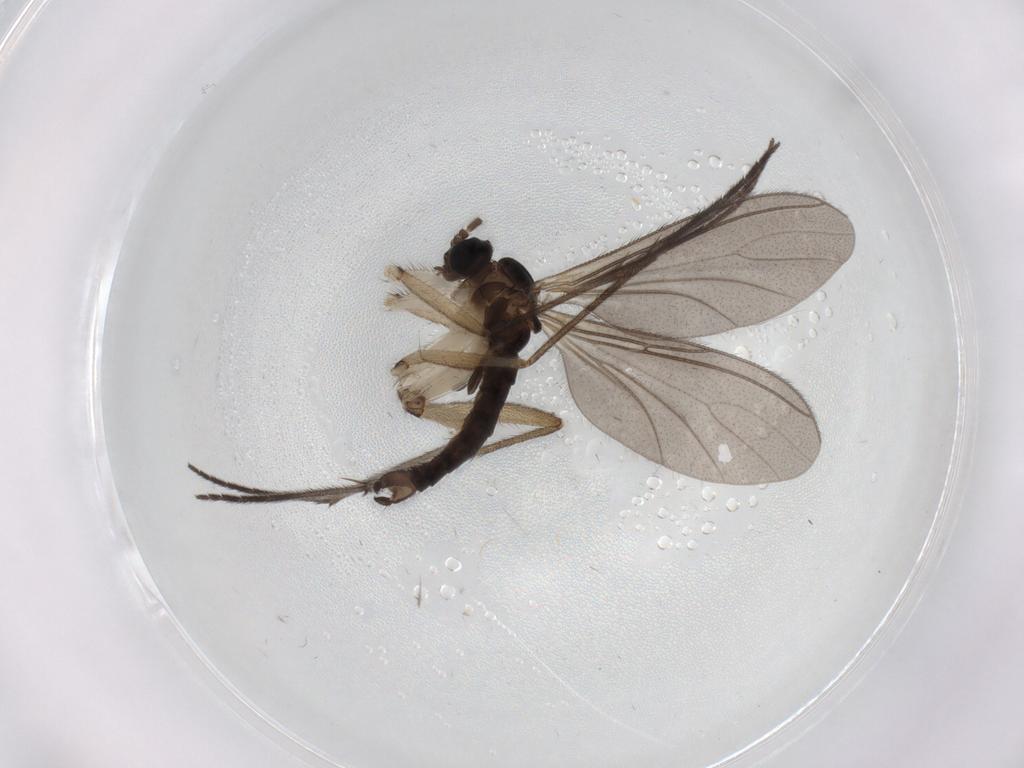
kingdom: Animalia
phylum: Arthropoda
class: Insecta
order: Diptera
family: Sciaridae
